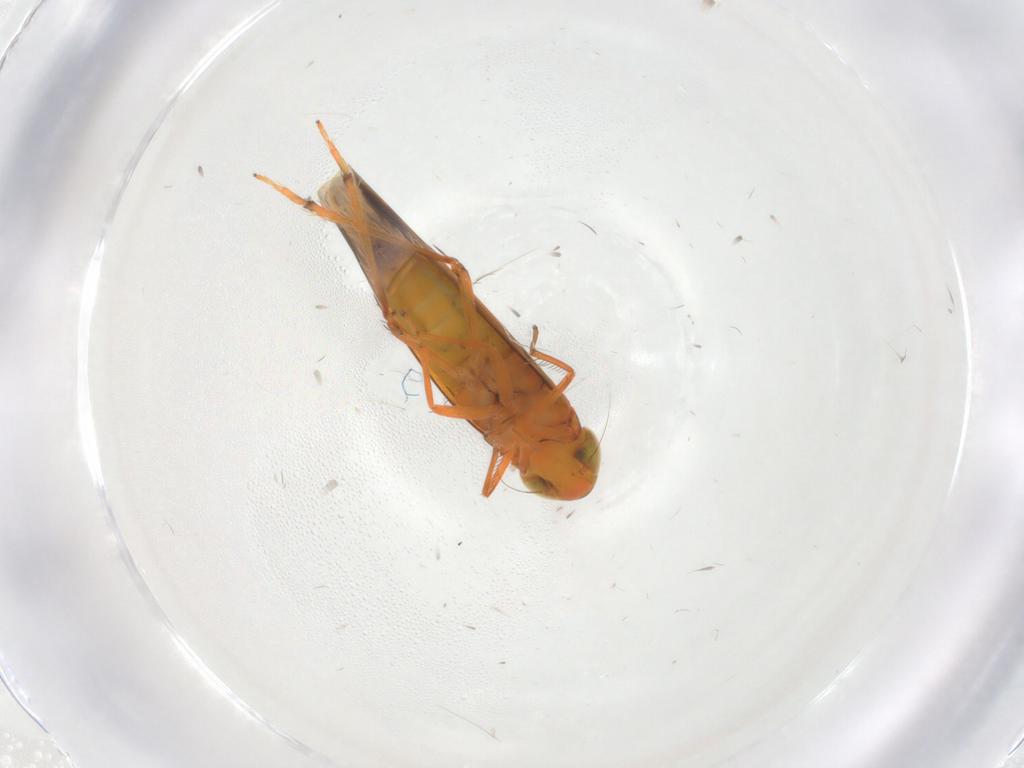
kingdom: Animalia
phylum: Arthropoda
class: Insecta
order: Hemiptera
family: Cicadellidae
